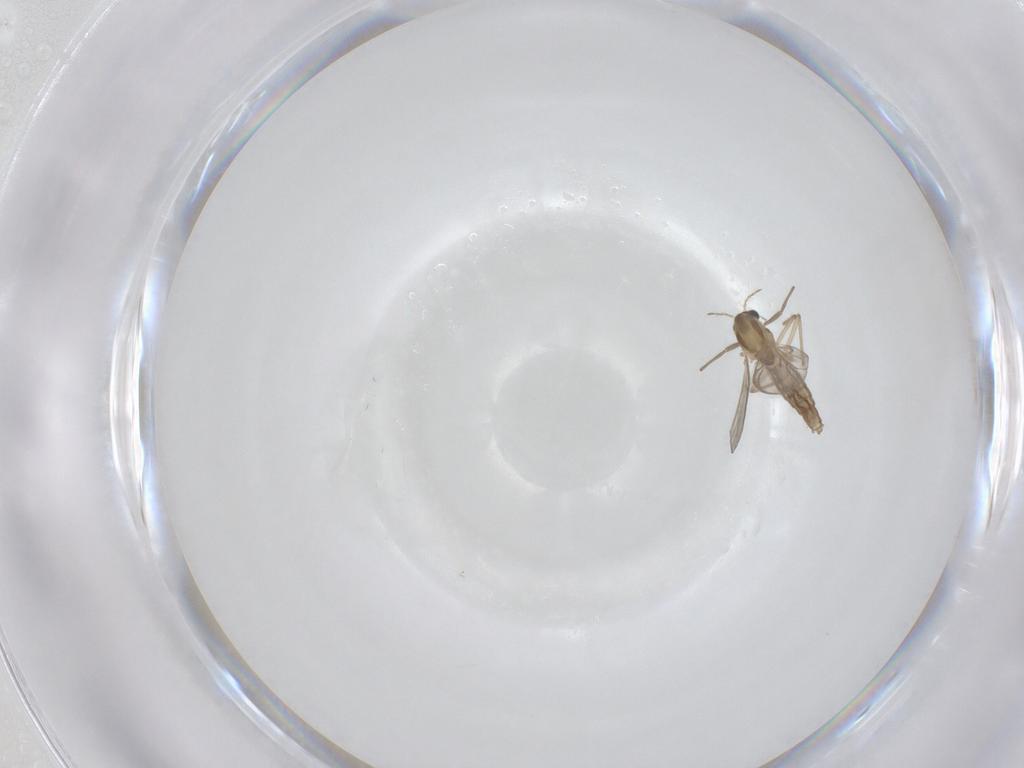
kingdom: Animalia
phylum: Arthropoda
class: Insecta
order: Diptera
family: Chironomidae
